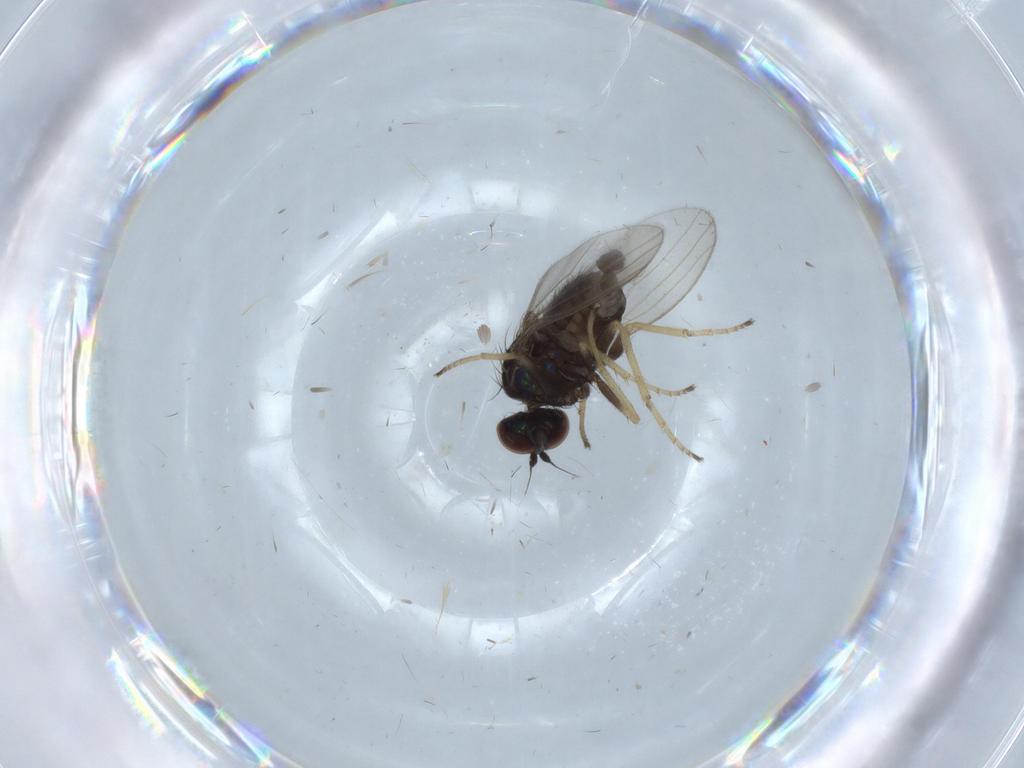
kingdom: Animalia
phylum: Arthropoda
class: Insecta
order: Diptera
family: Dolichopodidae
